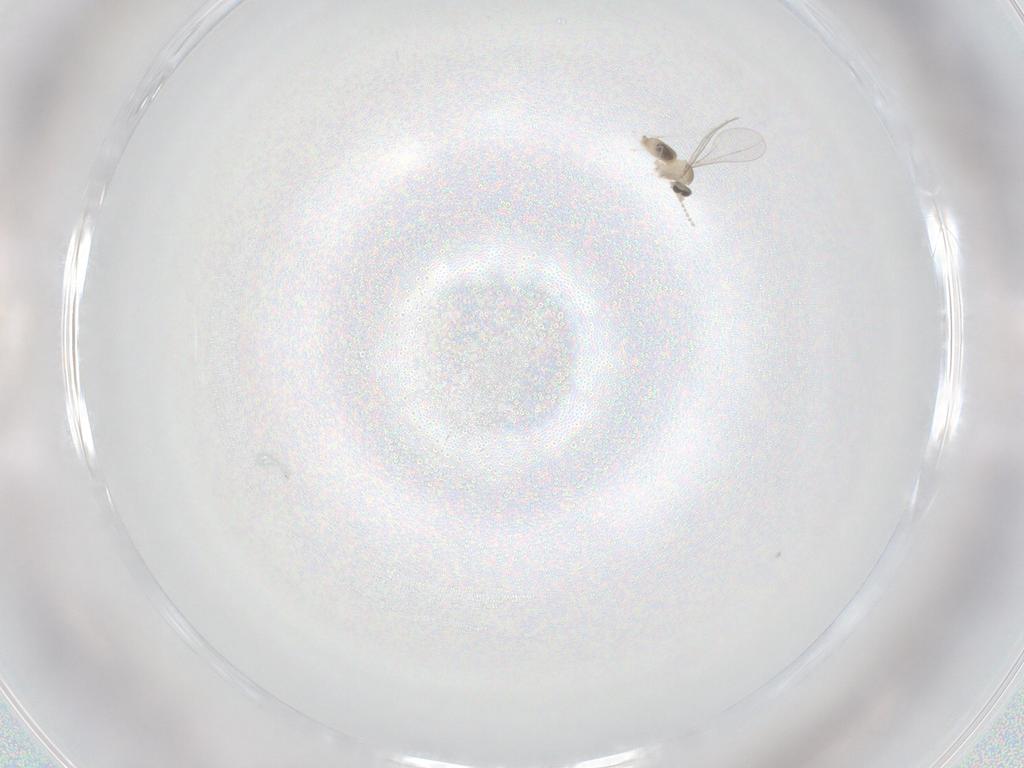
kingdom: Animalia
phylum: Arthropoda
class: Insecta
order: Diptera
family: Cecidomyiidae
